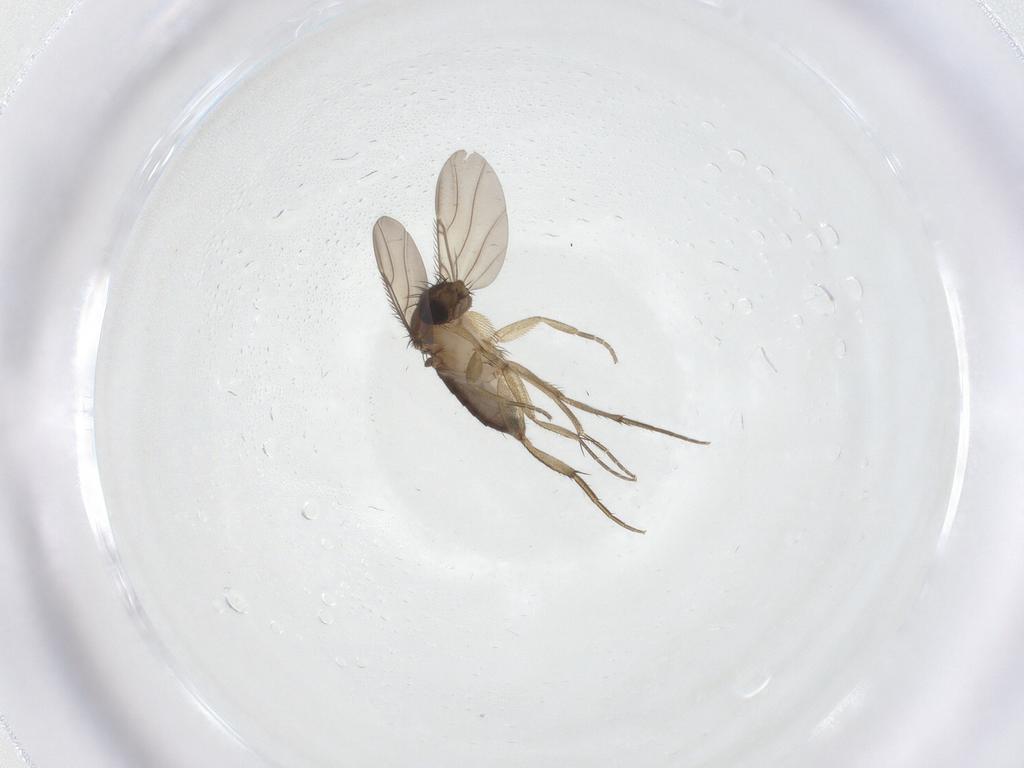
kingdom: Animalia
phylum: Arthropoda
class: Insecta
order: Diptera
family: Phoridae
